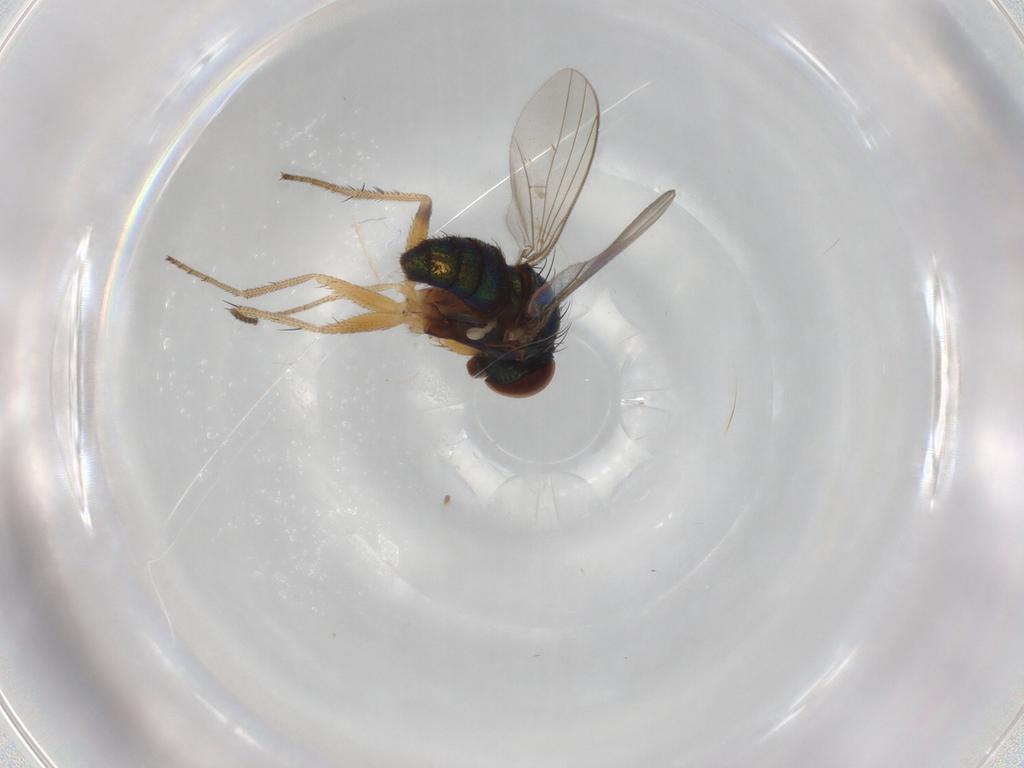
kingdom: Animalia
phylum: Arthropoda
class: Insecta
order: Diptera
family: Dolichopodidae
